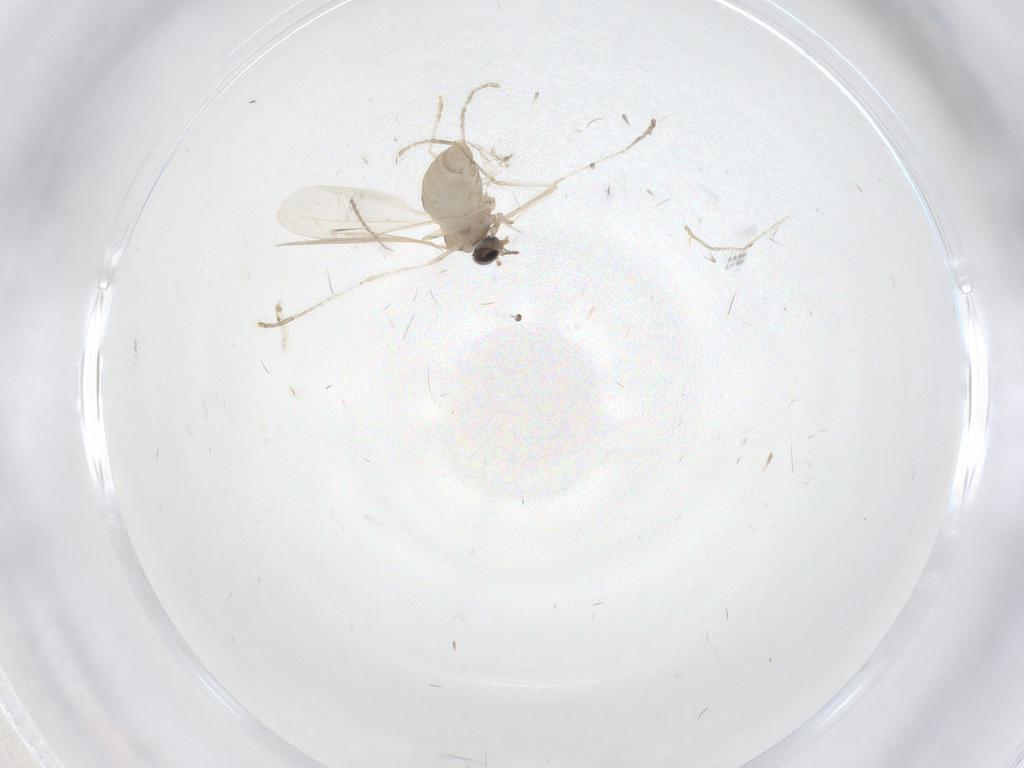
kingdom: Animalia
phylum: Arthropoda
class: Insecta
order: Diptera
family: Cecidomyiidae
